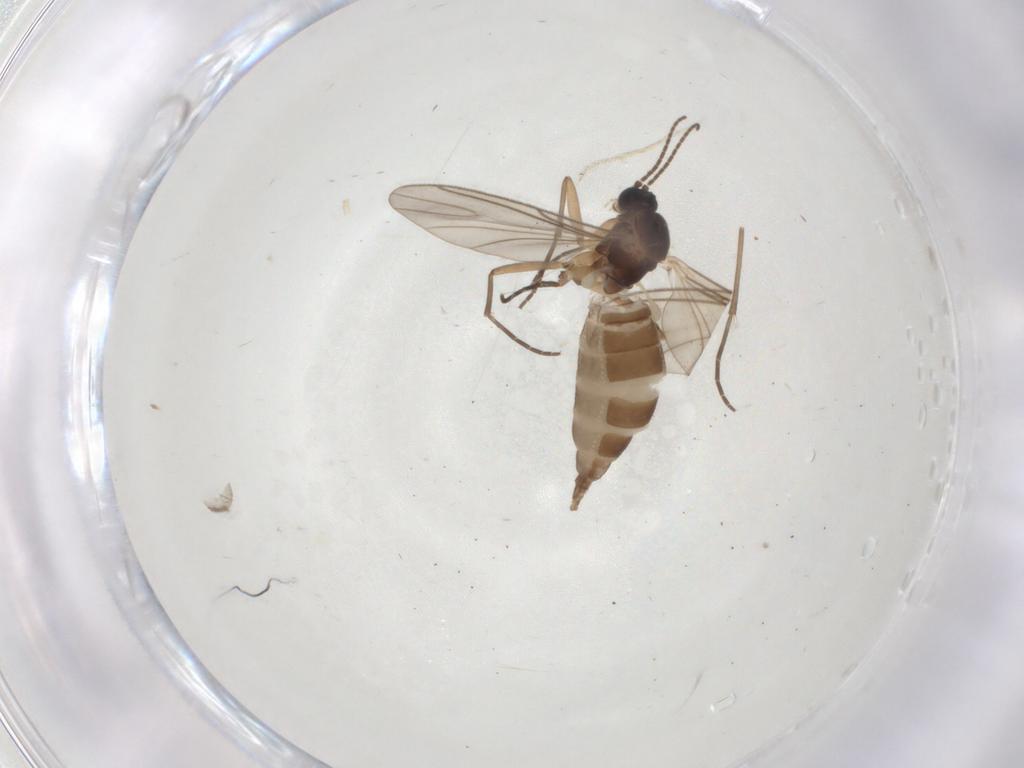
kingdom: Animalia
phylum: Arthropoda
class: Insecta
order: Diptera
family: Sciaridae
